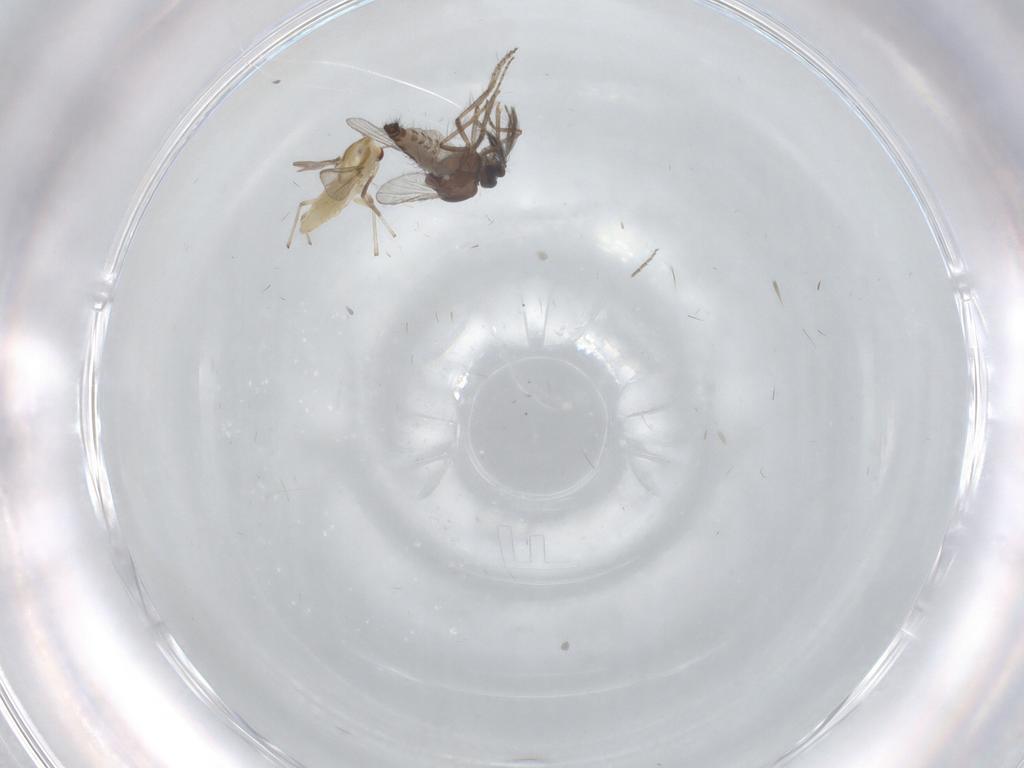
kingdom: Animalia
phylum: Arthropoda
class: Insecta
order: Diptera
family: Ceratopogonidae
